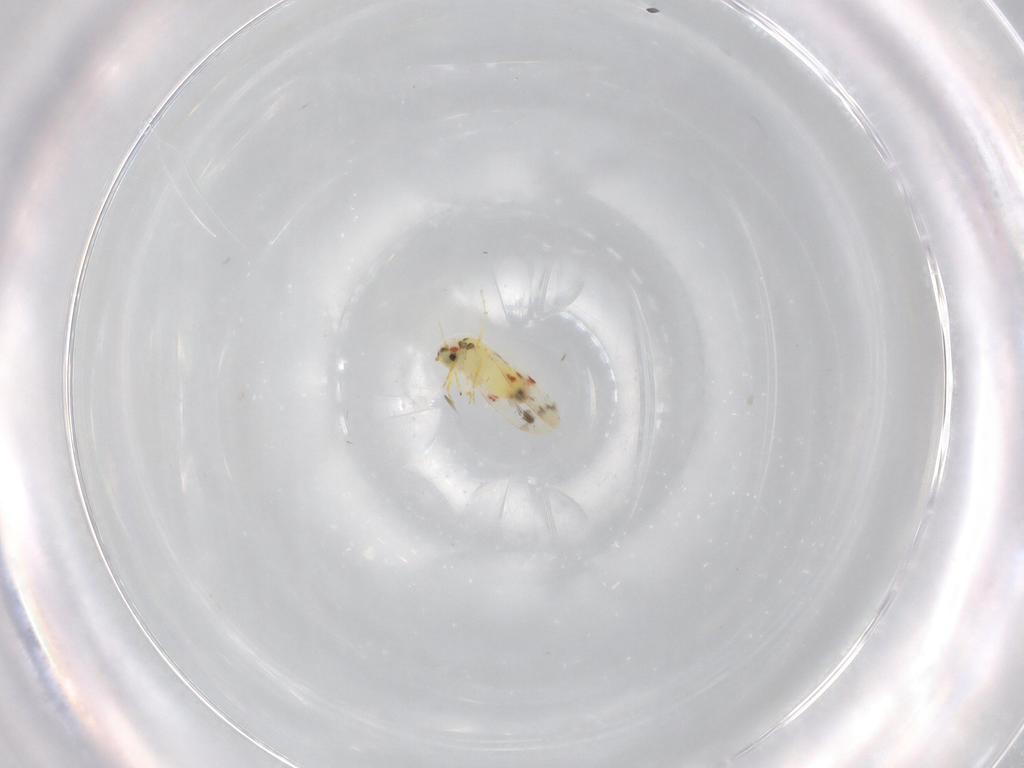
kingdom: Animalia
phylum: Arthropoda
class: Insecta
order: Hemiptera
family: Aleyrodidae
